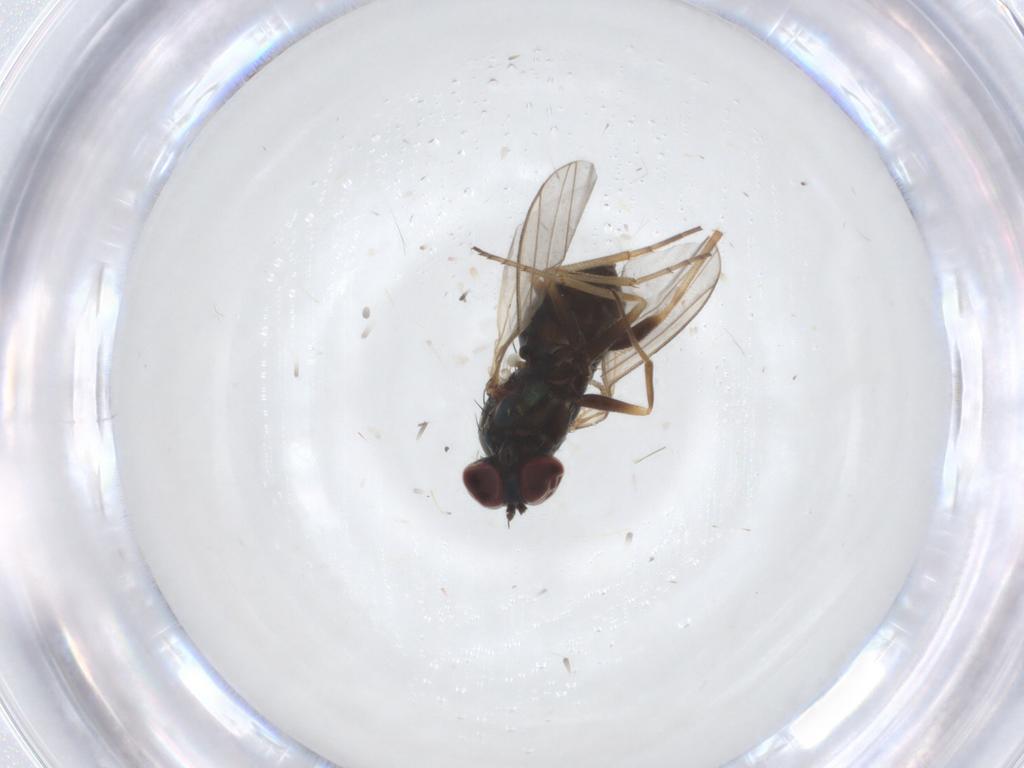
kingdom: Animalia
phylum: Arthropoda
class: Insecta
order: Diptera
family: Dolichopodidae
